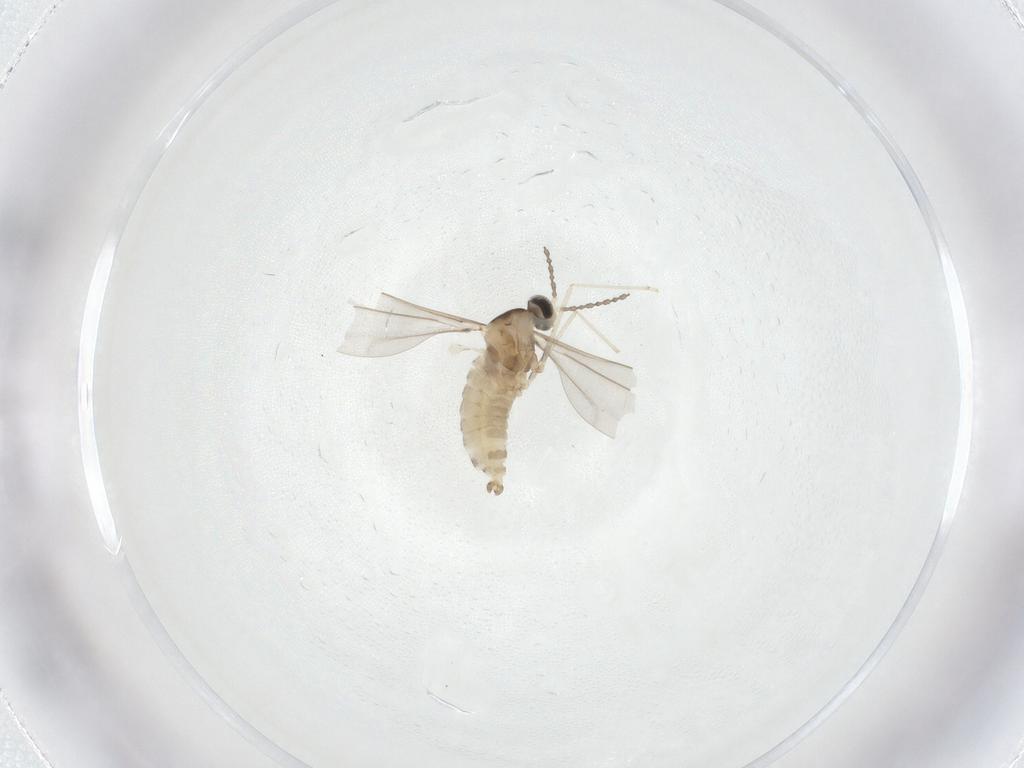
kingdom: Animalia
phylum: Arthropoda
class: Insecta
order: Diptera
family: Cecidomyiidae
